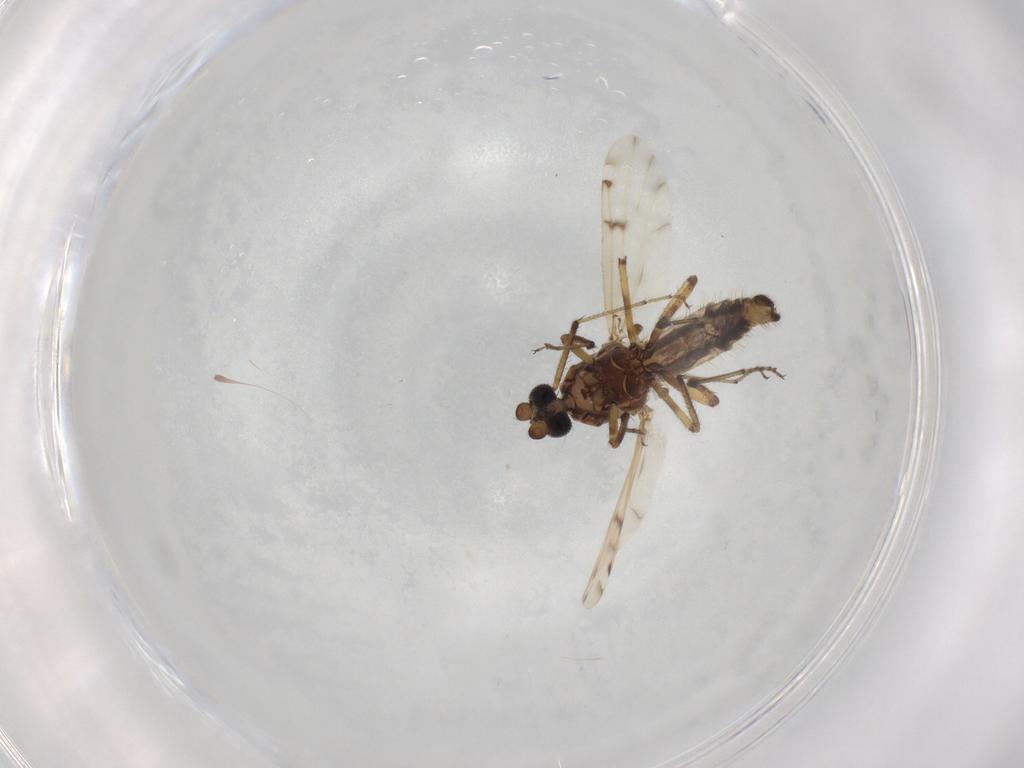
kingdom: Animalia
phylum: Arthropoda
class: Insecta
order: Diptera
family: Ceratopogonidae
